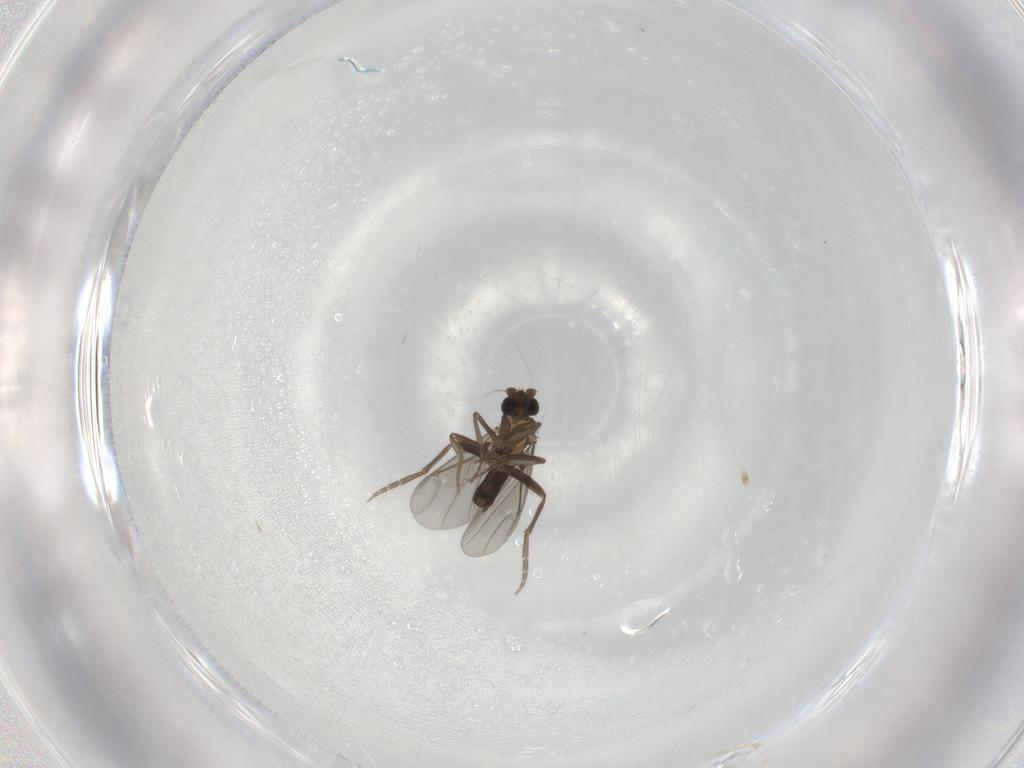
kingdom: Animalia
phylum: Arthropoda
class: Insecta
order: Diptera
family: Phoridae
